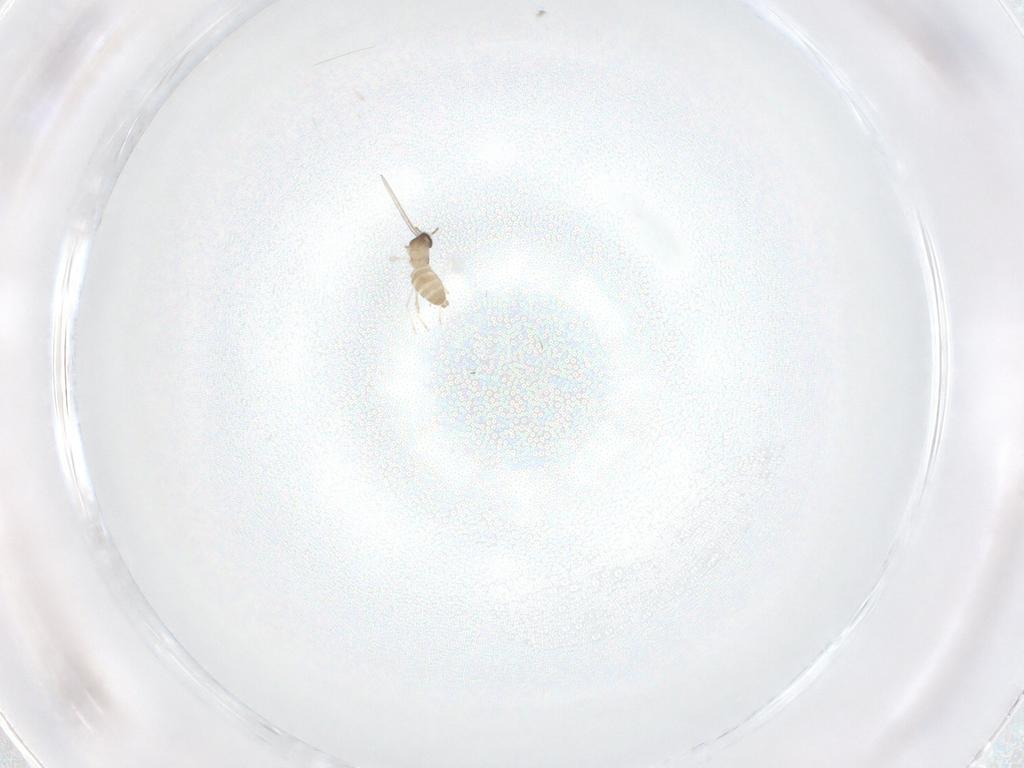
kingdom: Animalia
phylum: Arthropoda
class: Insecta
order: Diptera
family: Cecidomyiidae
